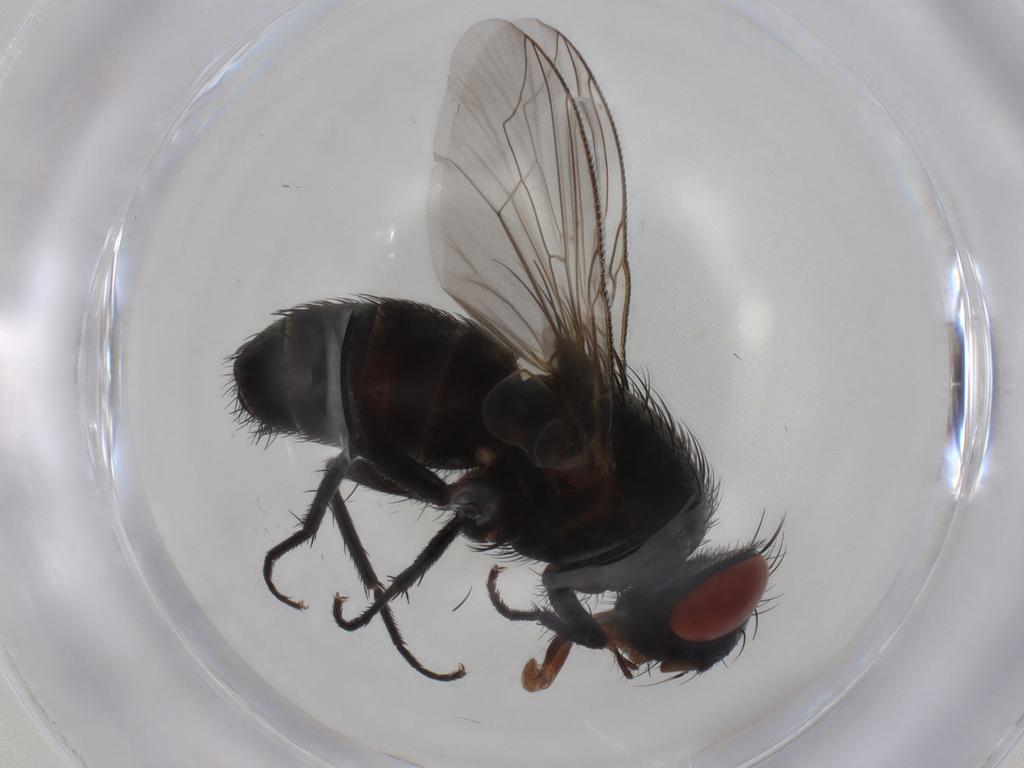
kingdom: Animalia
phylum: Arthropoda
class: Insecta
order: Diptera
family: Sarcophagidae
